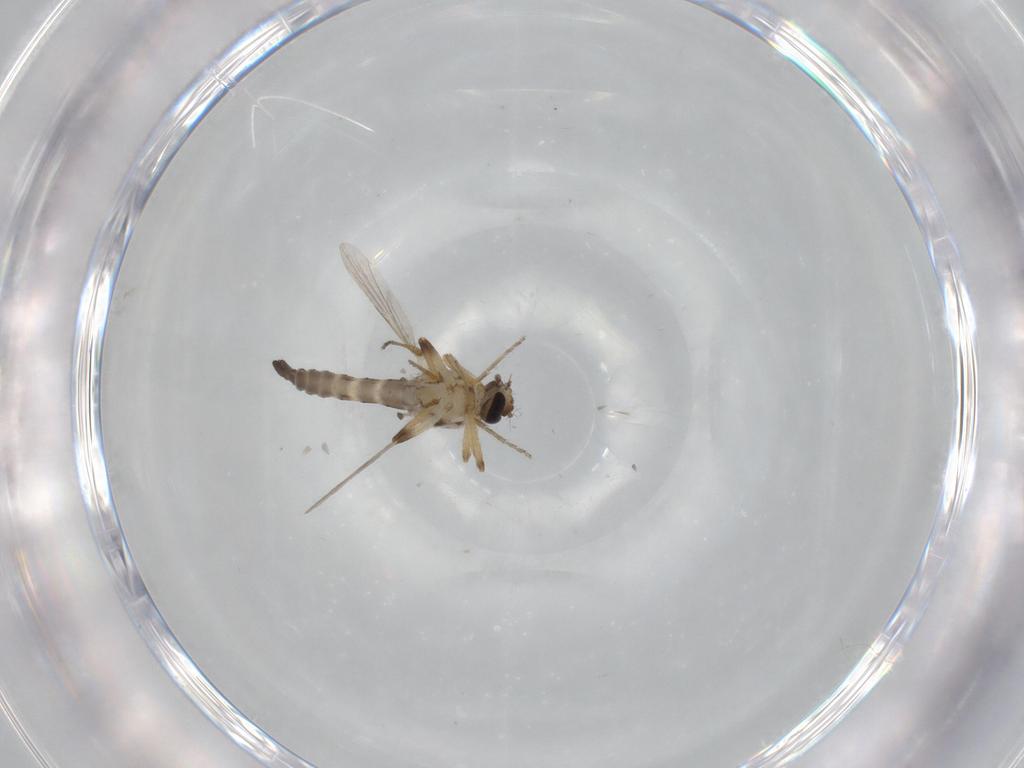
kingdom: Animalia
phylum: Arthropoda
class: Insecta
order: Diptera
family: Ceratopogonidae
